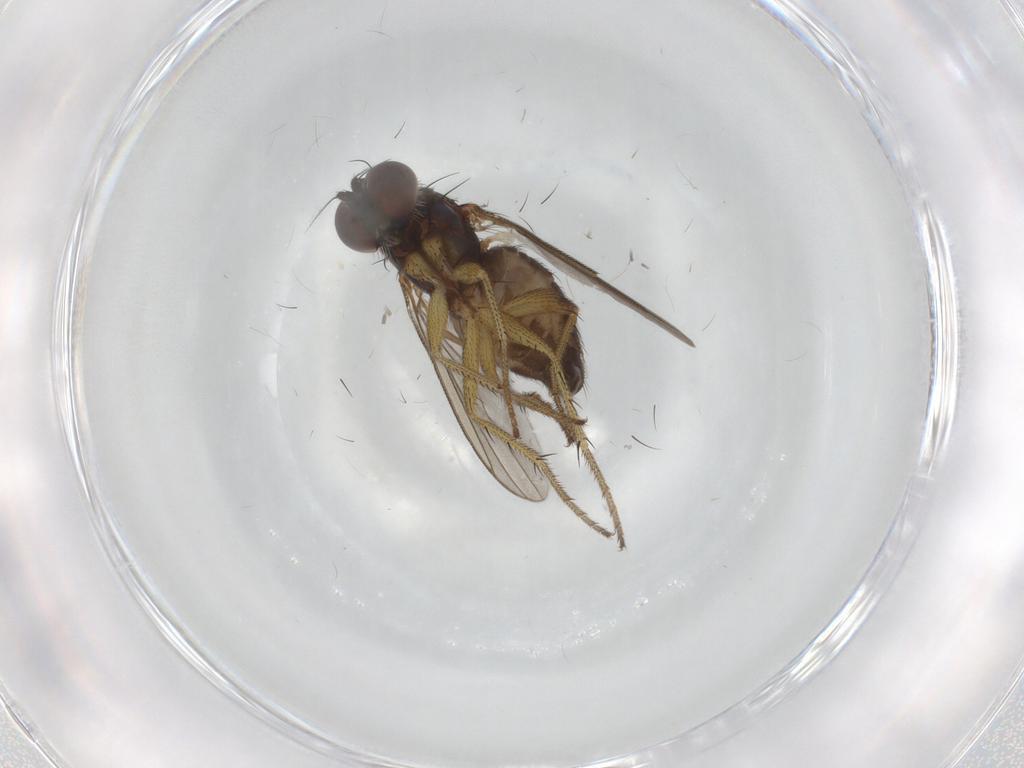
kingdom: Animalia
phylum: Arthropoda
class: Insecta
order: Diptera
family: Dolichopodidae
